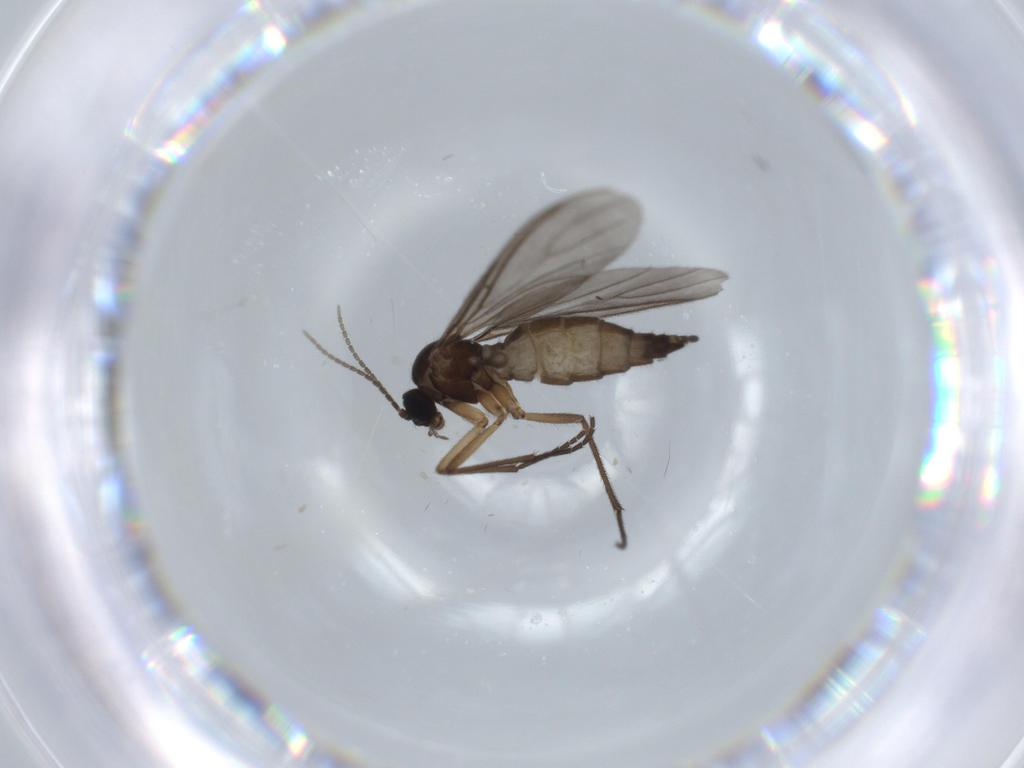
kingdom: Animalia
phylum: Arthropoda
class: Insecta
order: Diptera
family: Sciaridae
